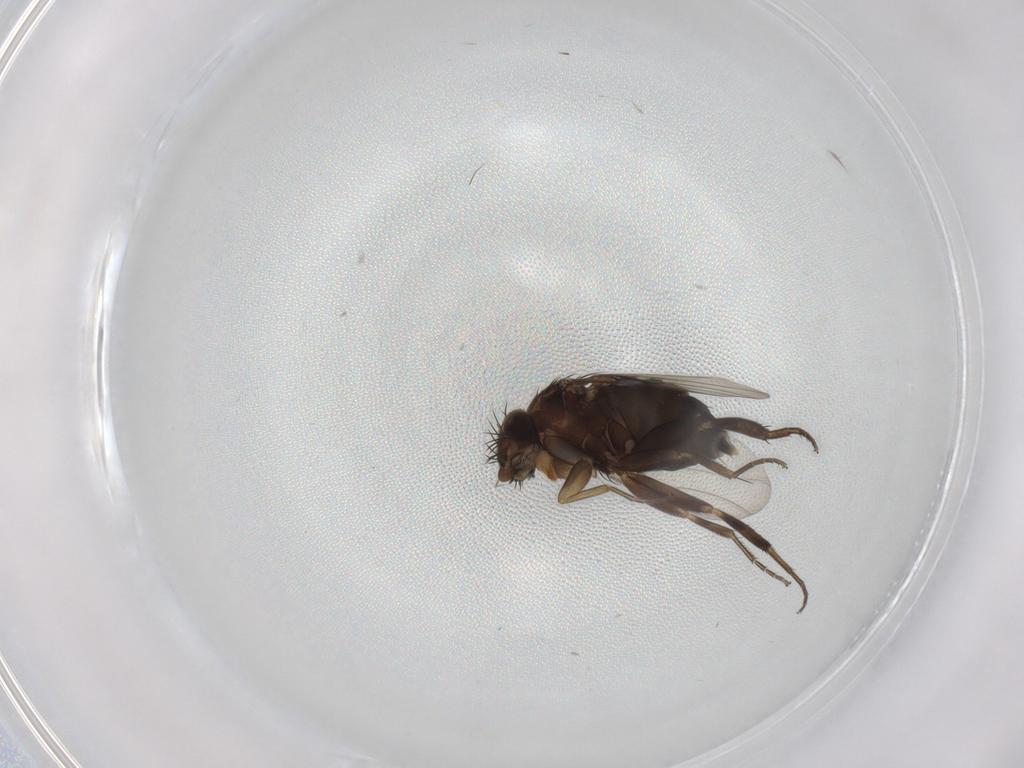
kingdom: Animalia
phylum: Arthropoda
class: Insecta
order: Diptera
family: Phoridae
